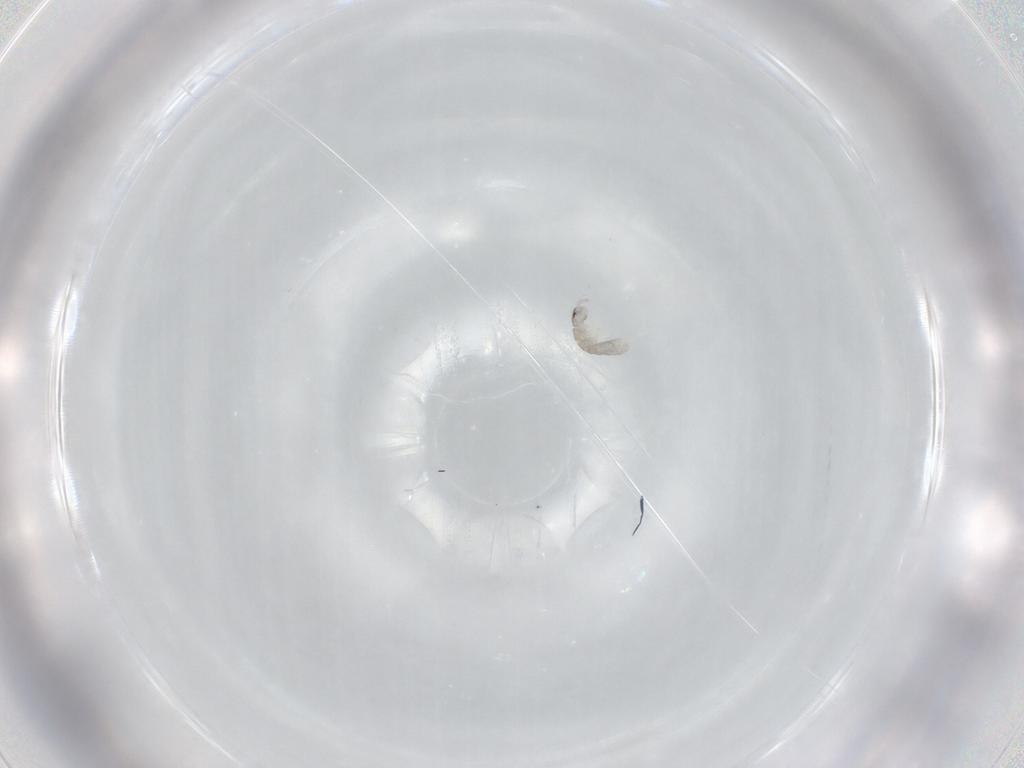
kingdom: Animalia
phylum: Arthropoda
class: Collembola
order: Entomobryomorpha
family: Isotomidae
